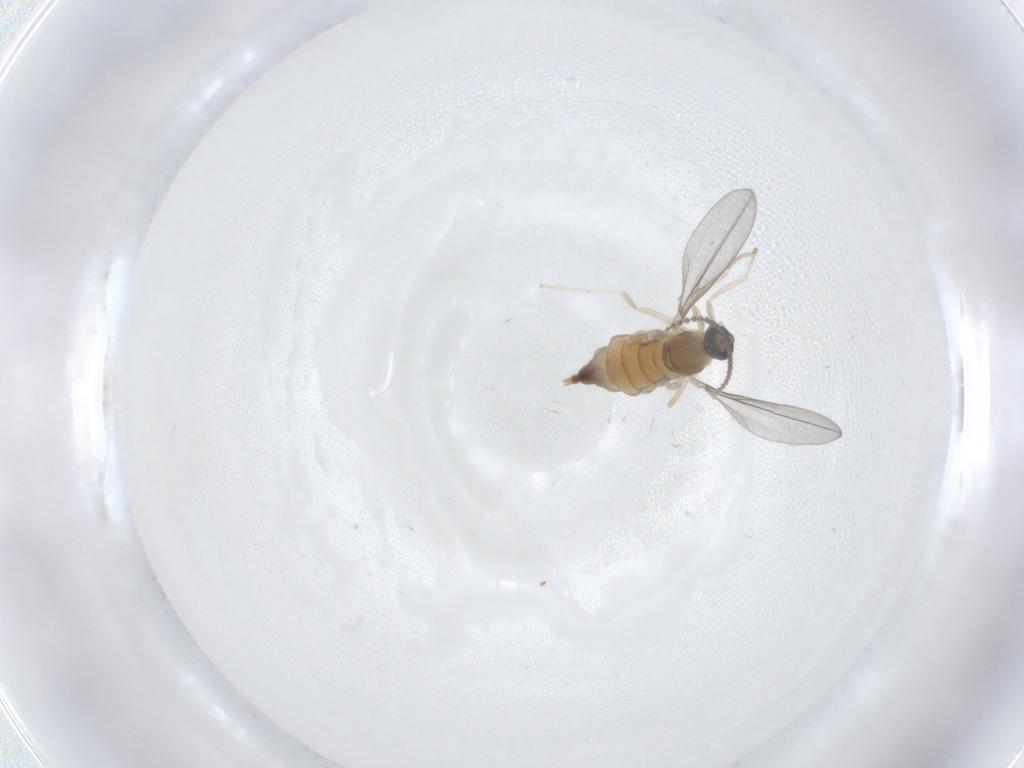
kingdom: Animalia
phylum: Arthropoda
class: Insecta
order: Diptera
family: Cecidomyiidae
